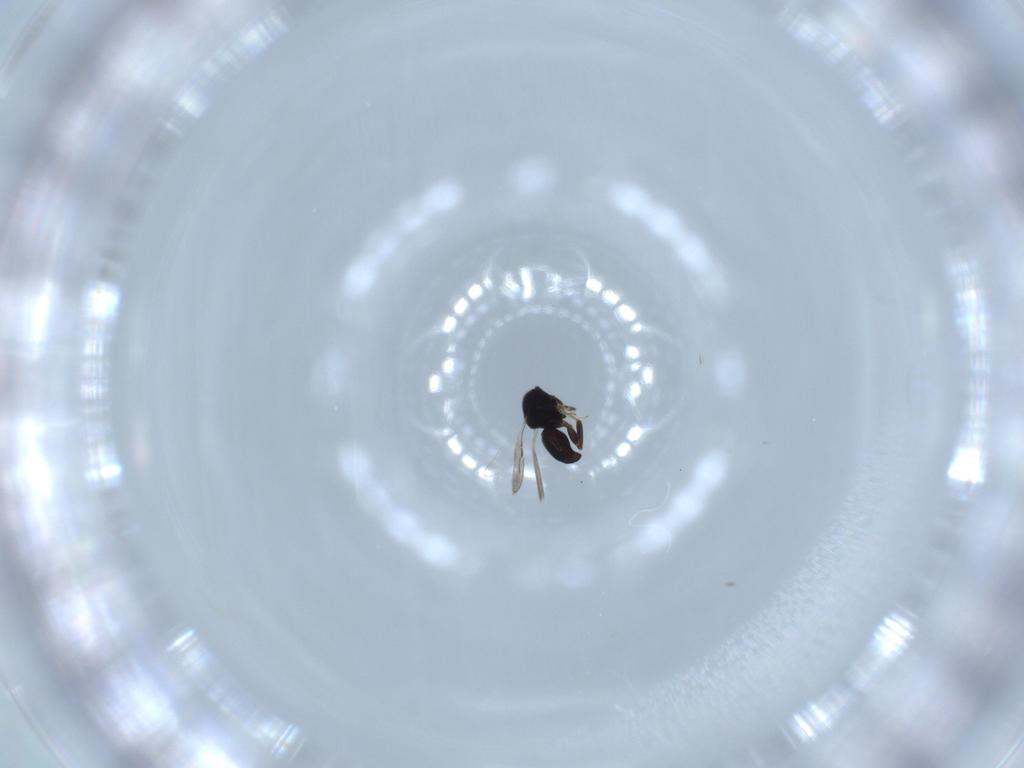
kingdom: Animalia
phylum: Arthropoda
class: Insecta
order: Hymenoptera
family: Ceraphronidae
